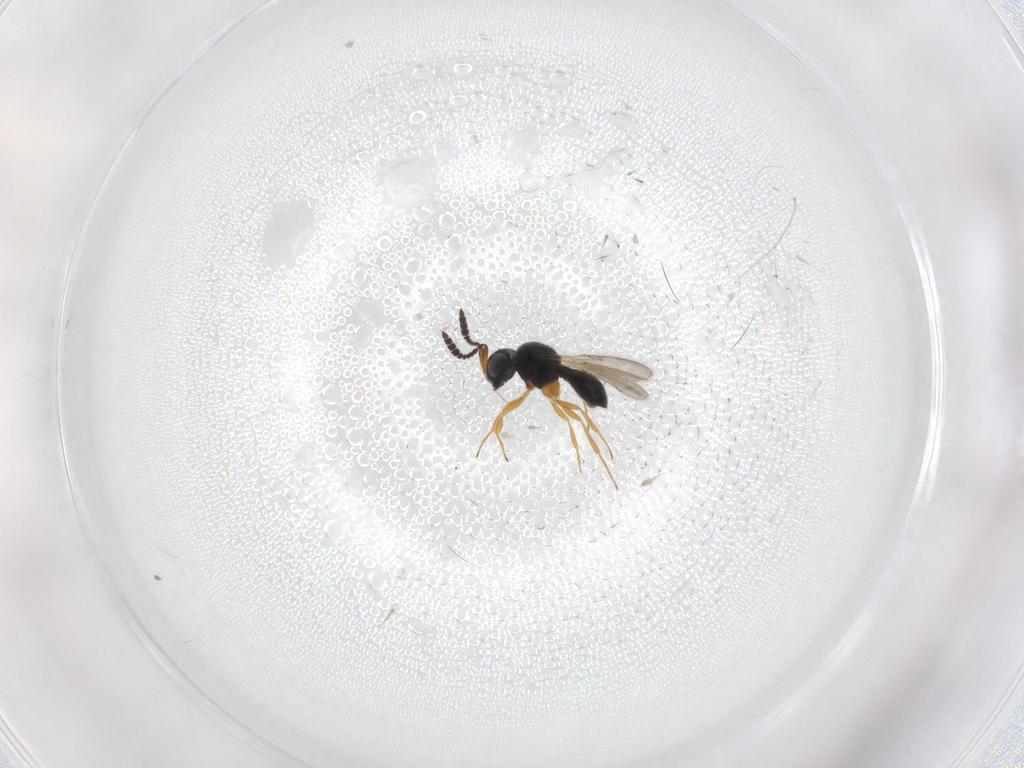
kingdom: Animalia
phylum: Arthropoda
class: Insecta
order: Hymenoptera
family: Scelionidae
